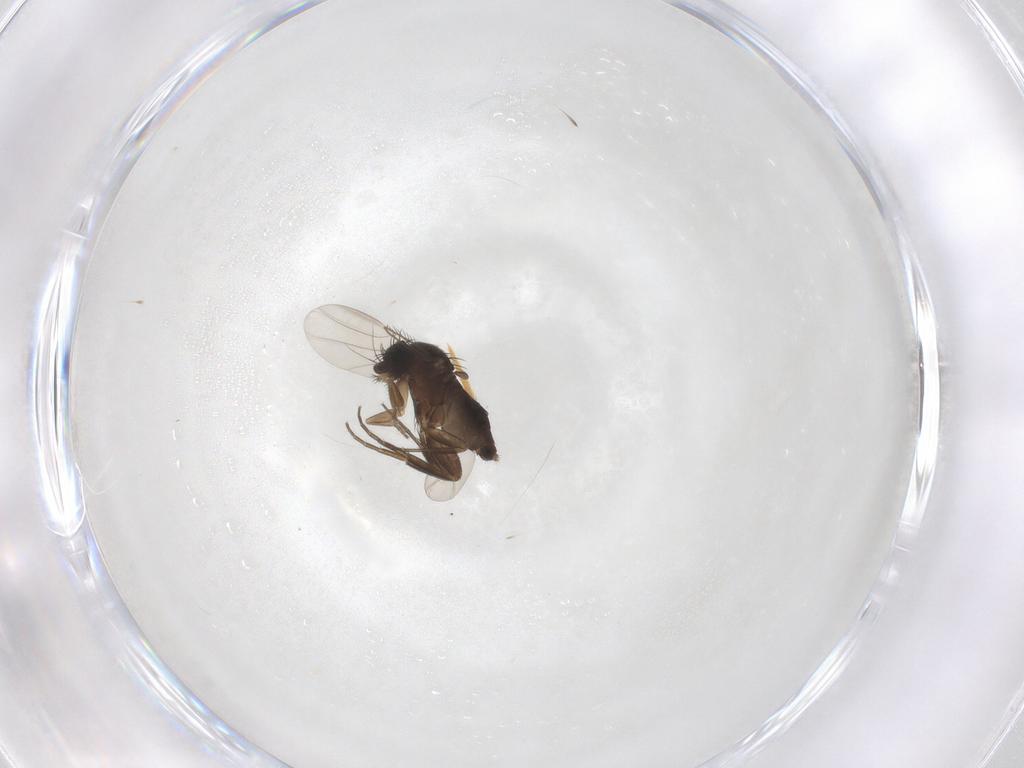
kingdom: Animalia
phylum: Arthropoda
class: Insecta
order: Diptera
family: Phoridae
